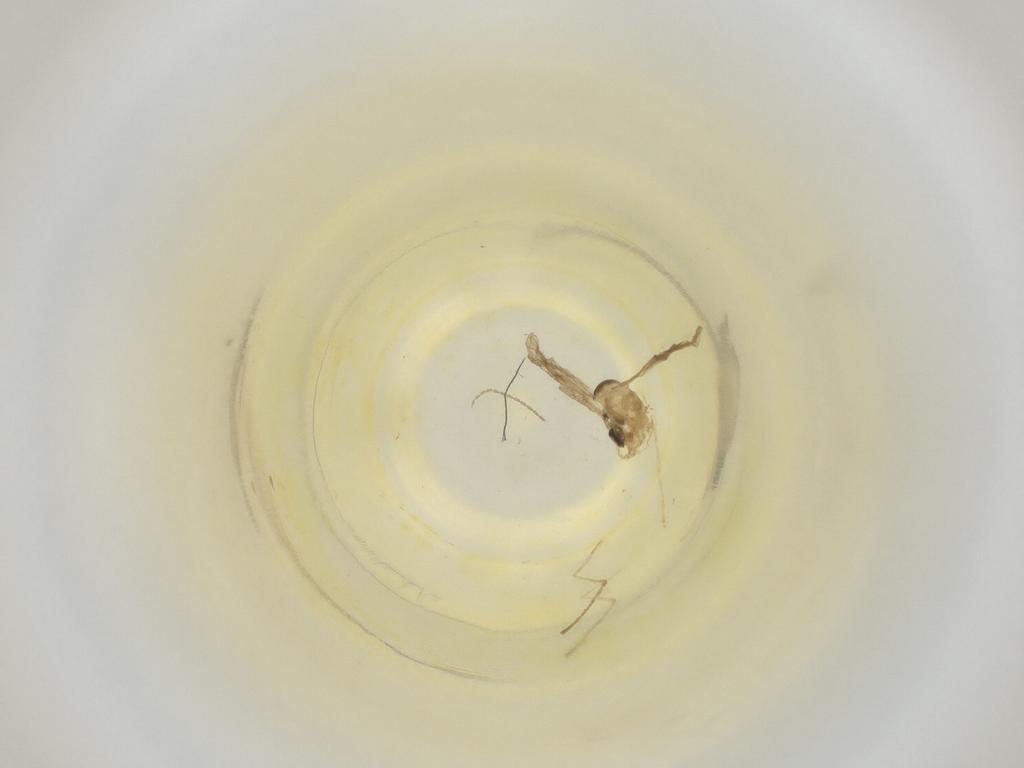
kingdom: Animalia
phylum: Arthropoda
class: Insecta
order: Diptera
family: Cecidomyiidae
